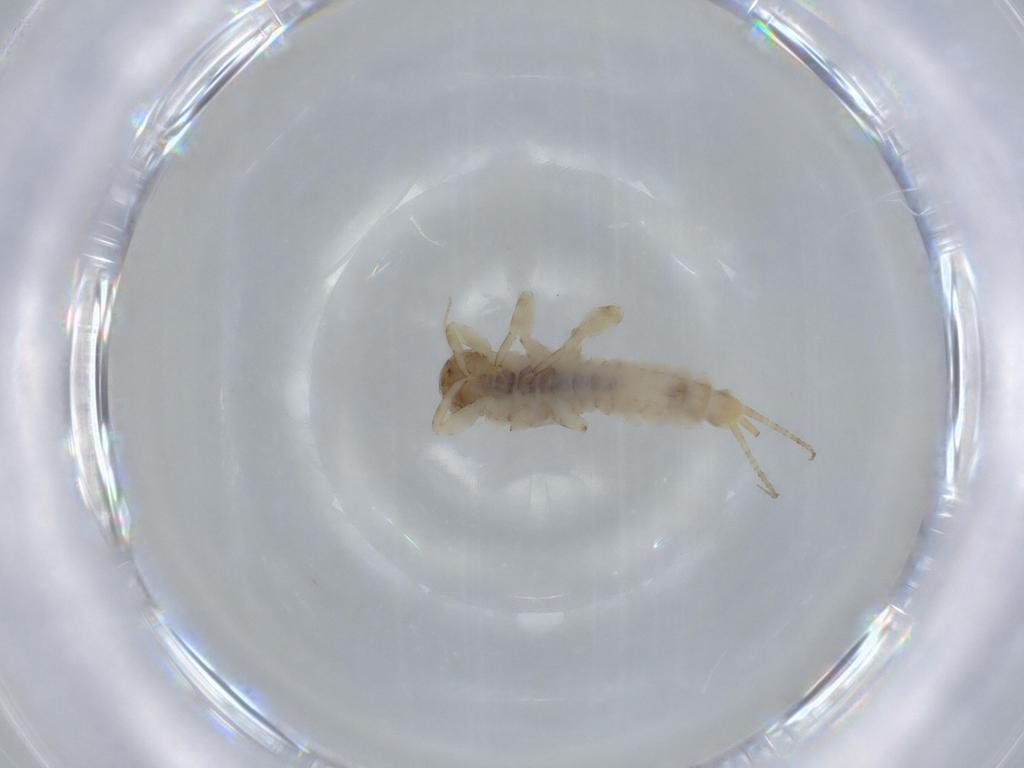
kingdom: Animalia
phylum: Arthropoda
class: Insecta
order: Ephemeroptera
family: Ephemerellidae
